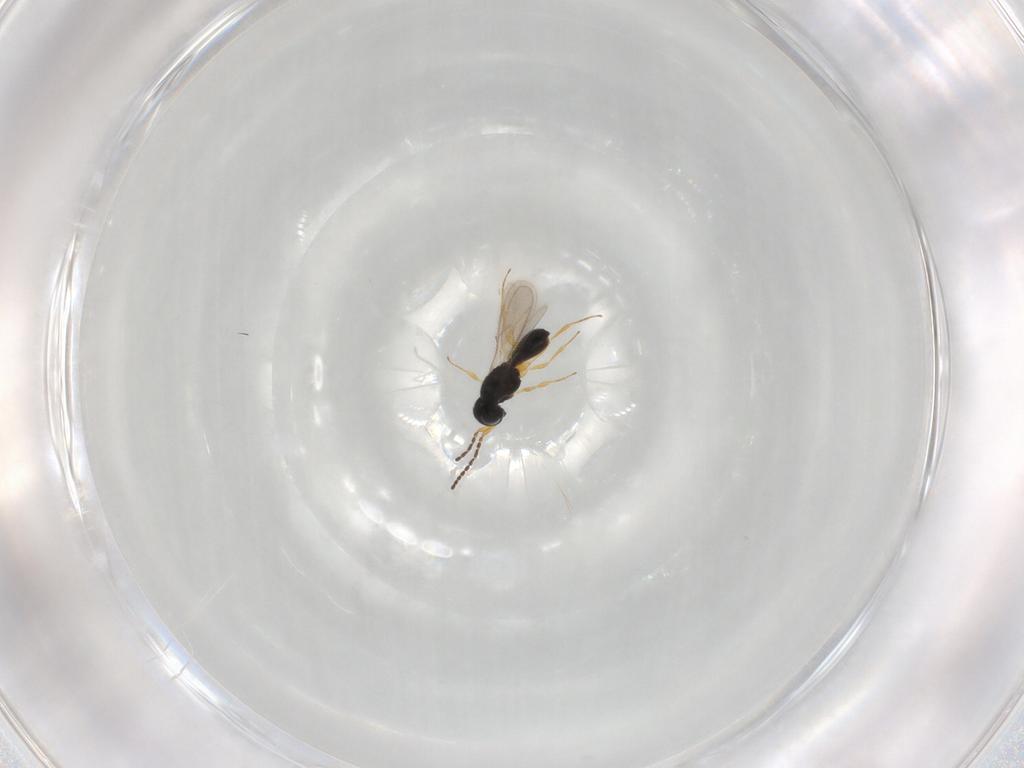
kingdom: Animalia
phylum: Arthropoda
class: Insecta
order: Hymenoptera
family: Scelionidae
